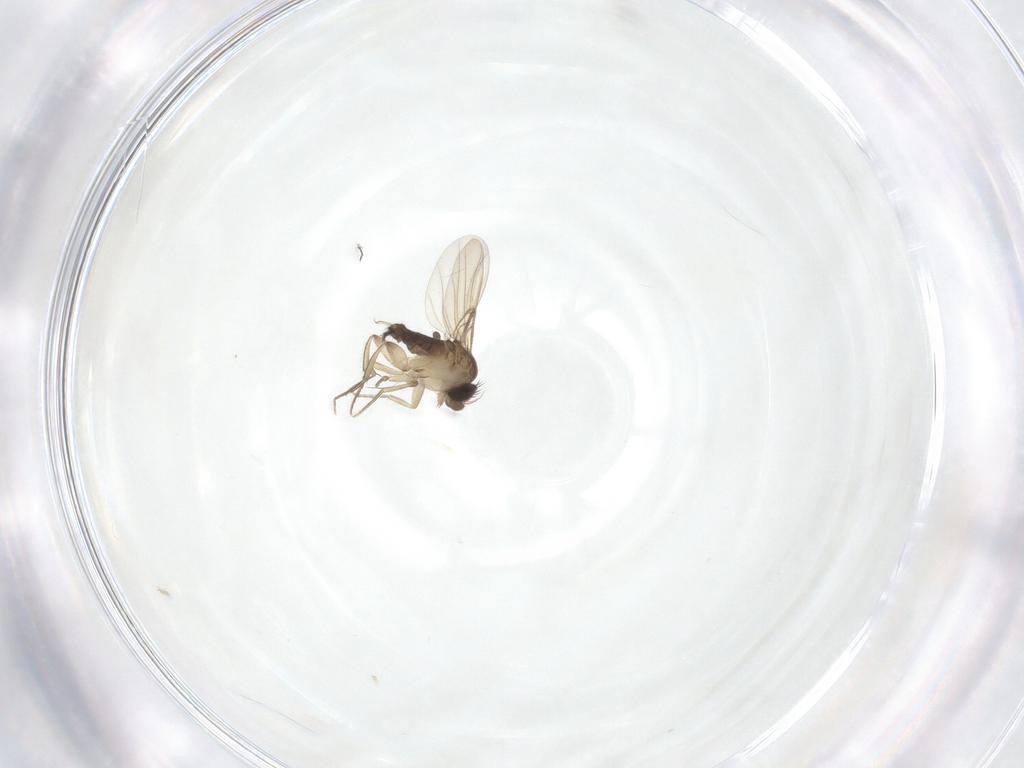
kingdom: Animalia
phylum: Arthropoda
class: Insecta
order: Diptera
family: Phoridae
